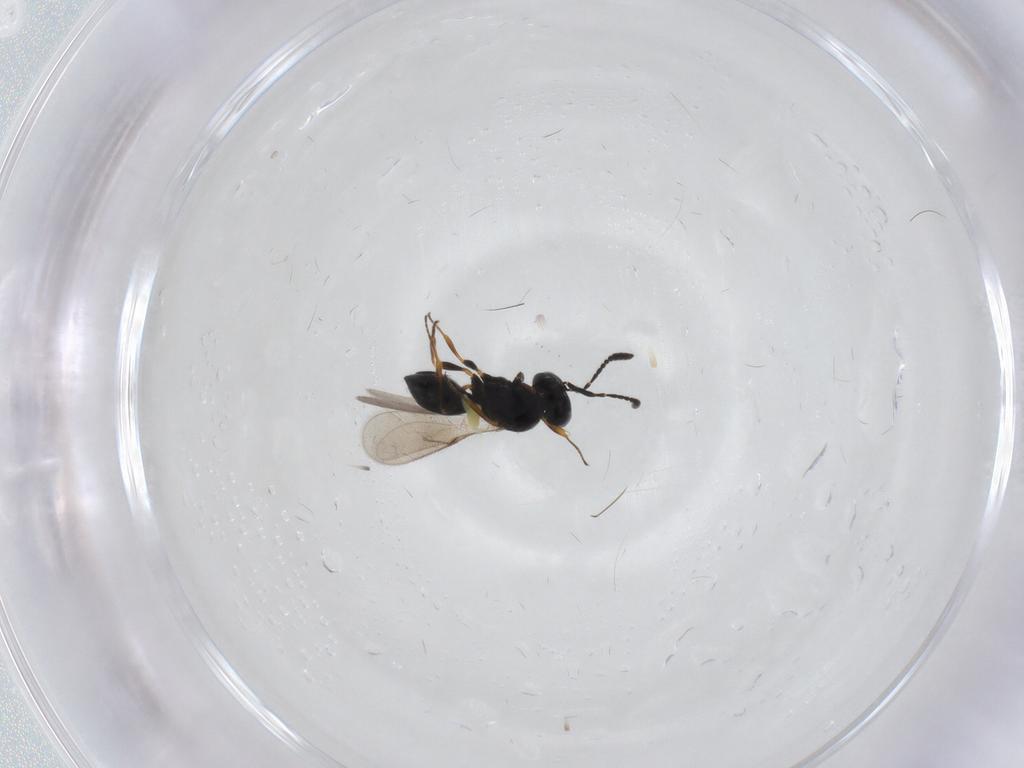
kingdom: Animalia
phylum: Arthropoda
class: Insecta
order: Hymenoptera
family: Scelionidae
